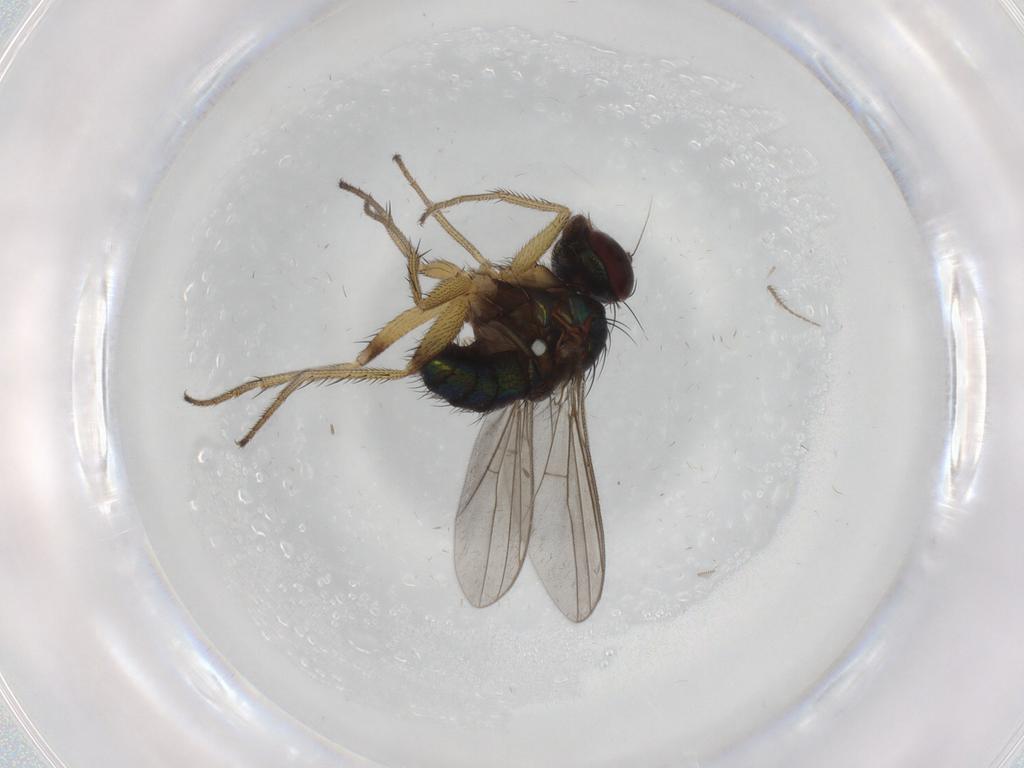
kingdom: Animalia
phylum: Arthropoda
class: Insecta
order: Diptera
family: Dolichopodidae
